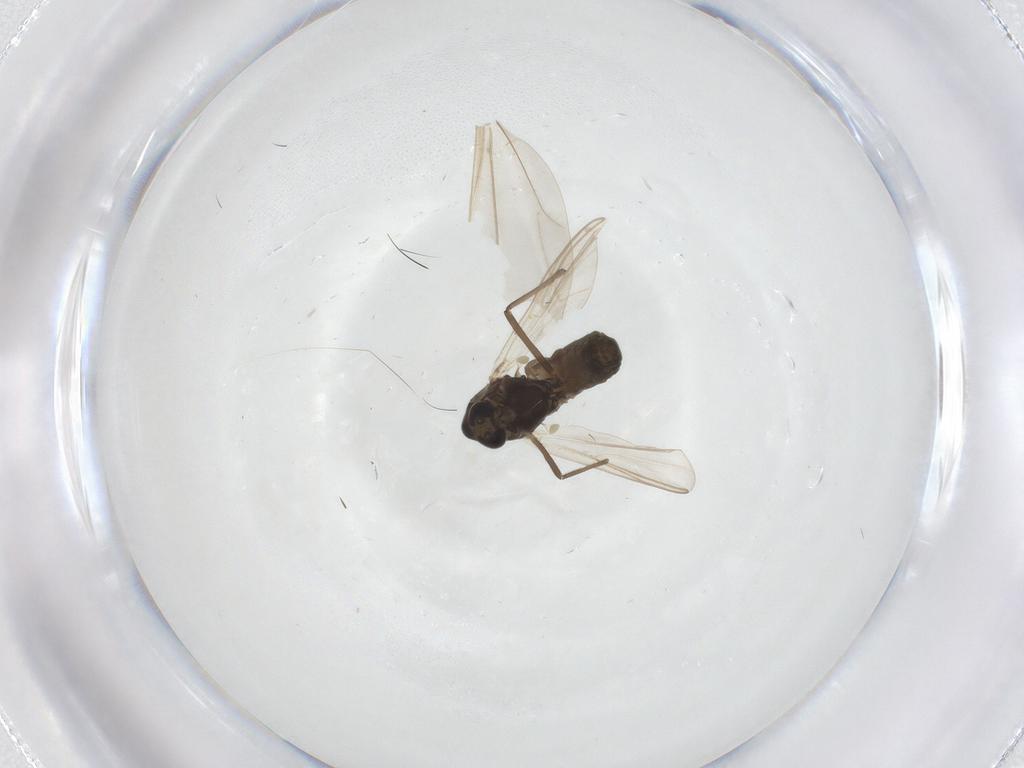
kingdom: Animalia
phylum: Arthropoda
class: Insecta
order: Diptera
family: Chironomidae
